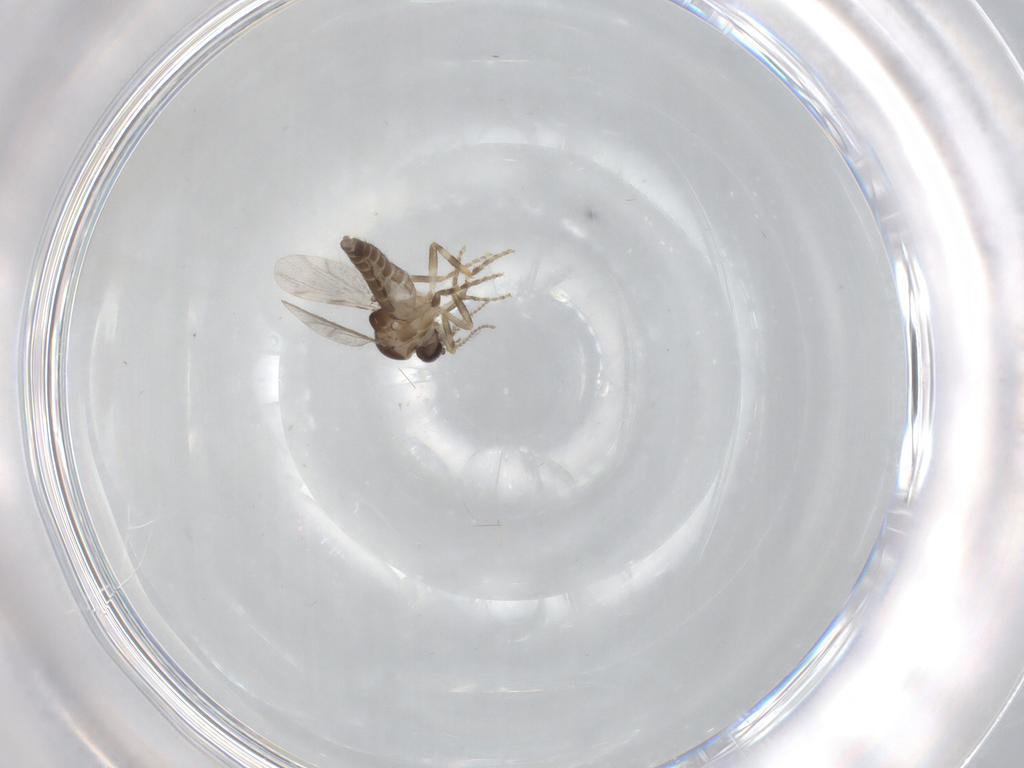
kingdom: Animalia
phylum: Arthropoda
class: Insecta
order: Diptera
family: Ceratopogonidae
